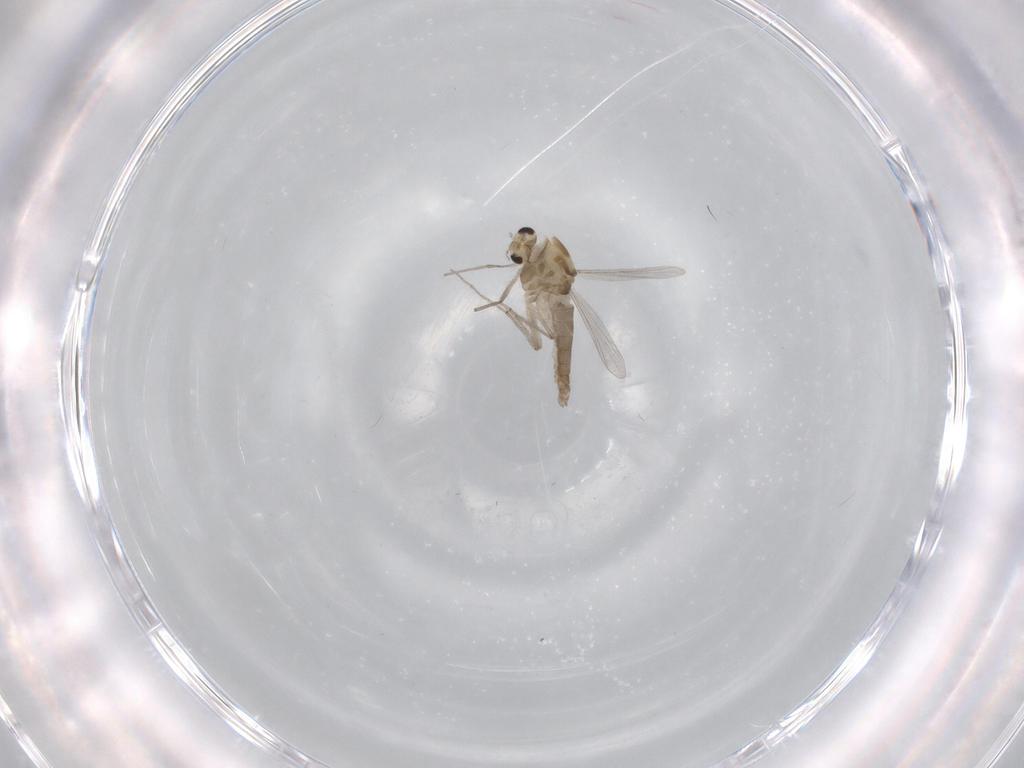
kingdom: Animalia
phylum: Arthropoda
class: Insecta
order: Diptera
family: Chironomidae
